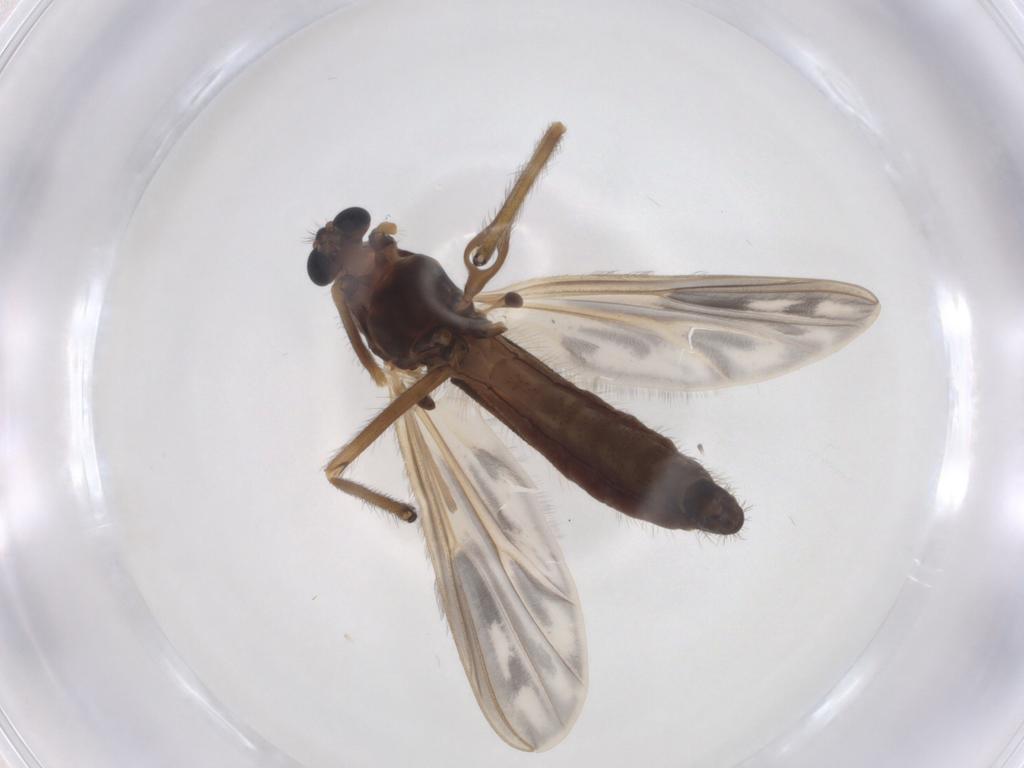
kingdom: Animalia
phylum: Arthropoda
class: Insecta
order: Diptera
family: Chironomidae
